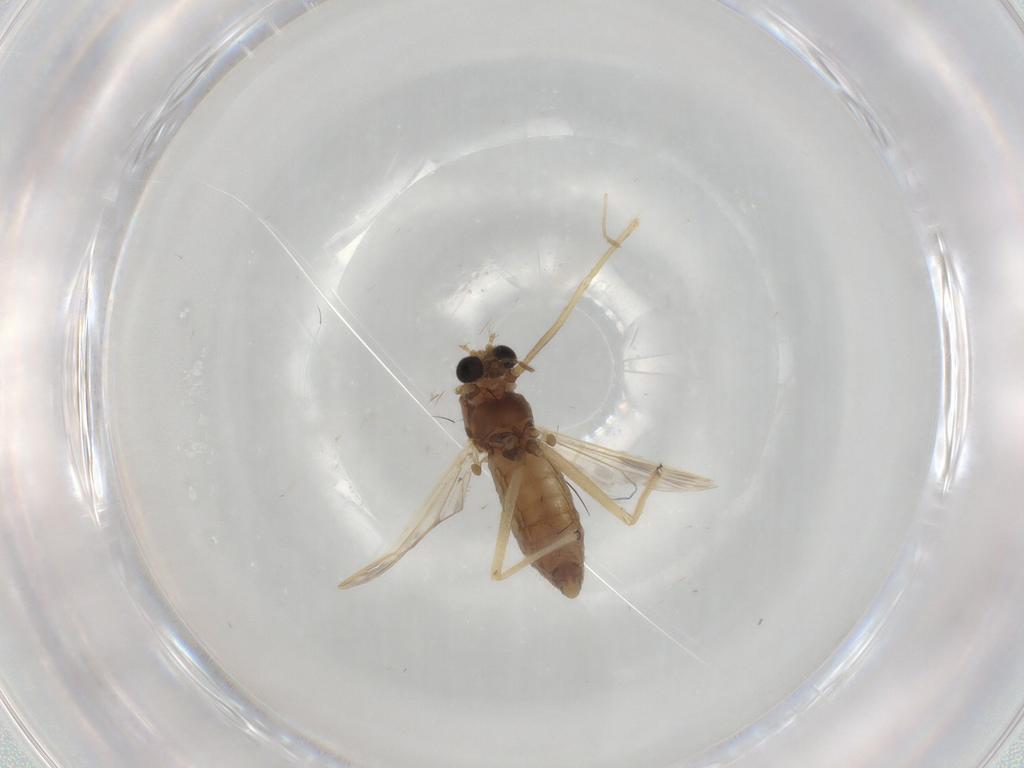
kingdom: Animalia
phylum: Arthropoda
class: Insecta
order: Diptera
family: Chironomidae
